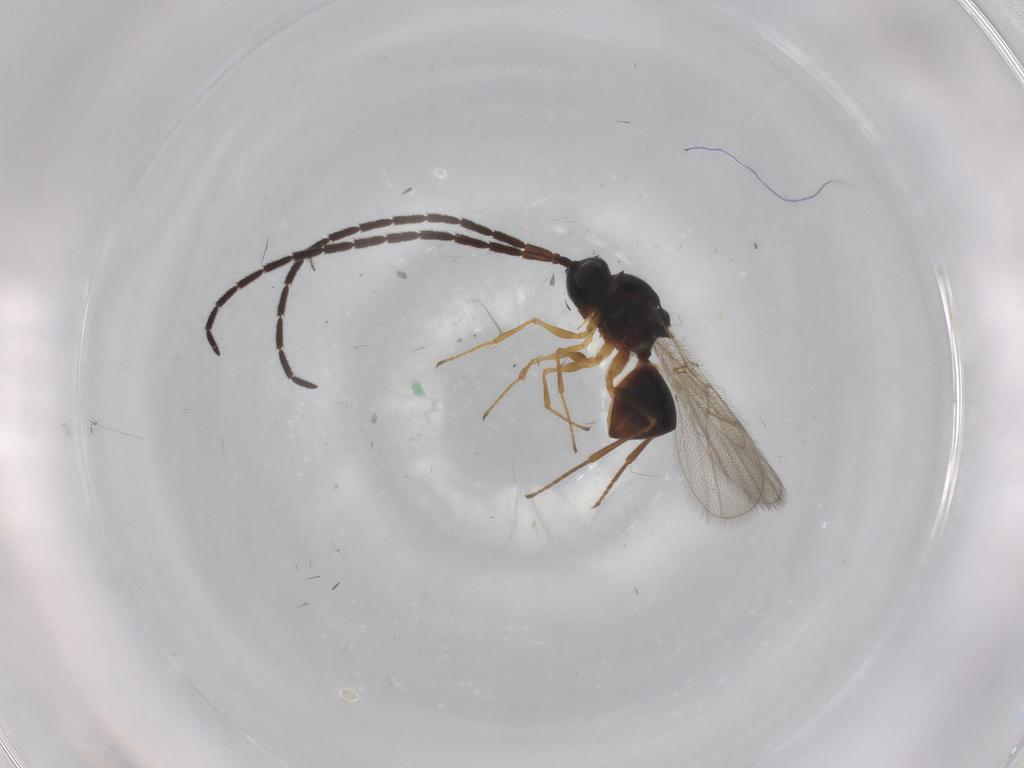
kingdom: Animalia
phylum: Arthropoda
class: Insecta
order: Hymenoptera
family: Figitidae
